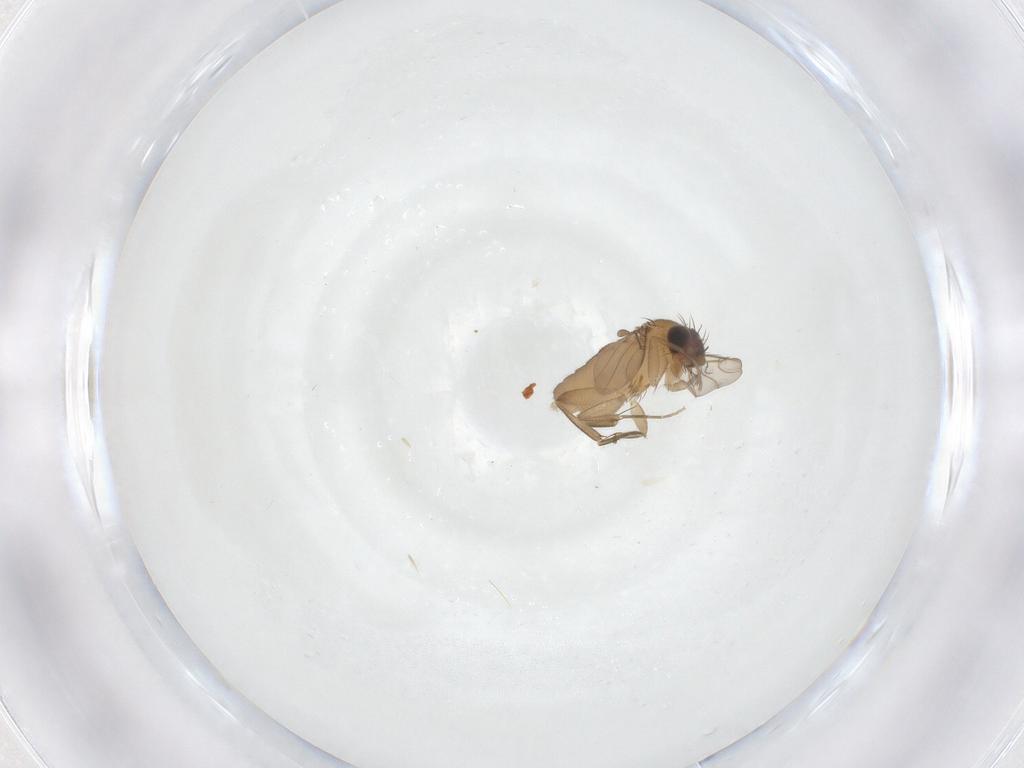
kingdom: Animalia
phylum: Arthropoda
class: Insecta
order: Diptera
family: Phoridae
